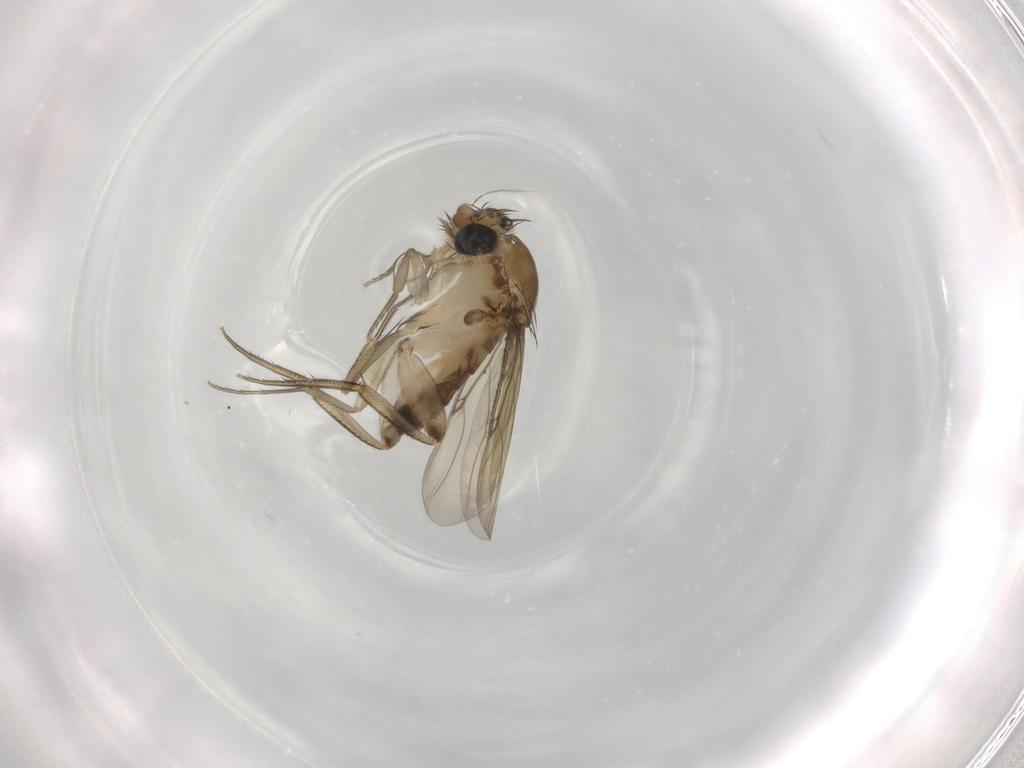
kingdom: Animalia
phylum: Arthropoda
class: Insecta
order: Diptera
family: Phoridae
